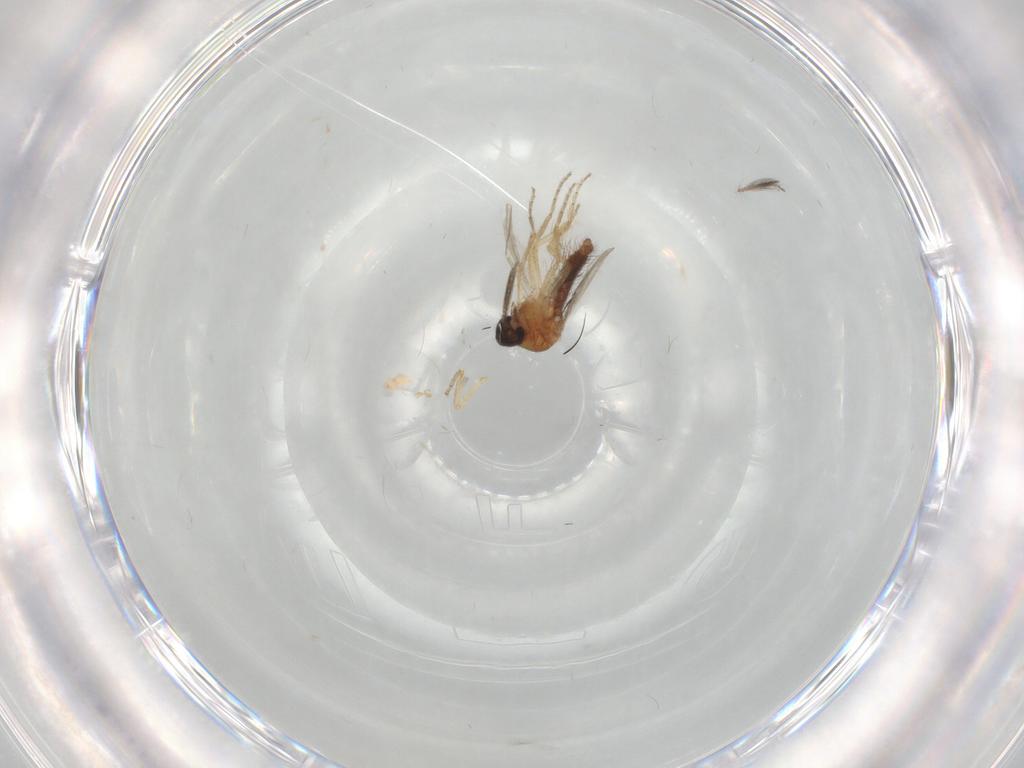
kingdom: Animalia
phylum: Arthropoda
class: Insecta
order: Diptera
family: Ceratopogonidae
